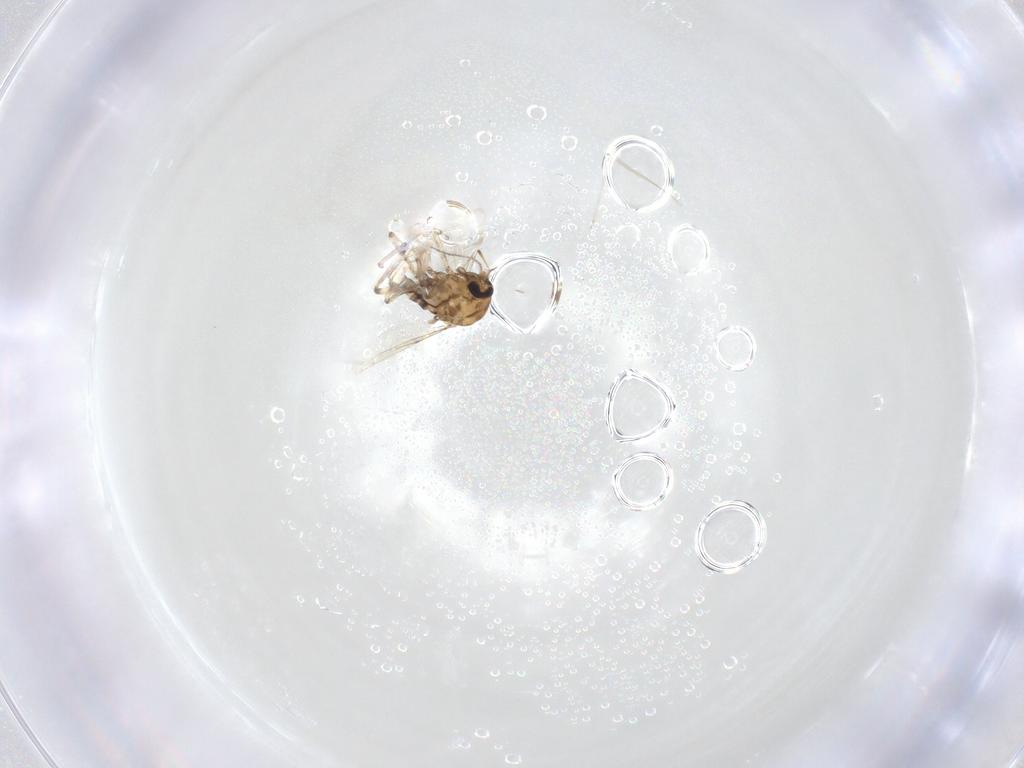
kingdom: Animalia
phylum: Arthropoda
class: Insecta
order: Diptera
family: Ceratopogonidae
